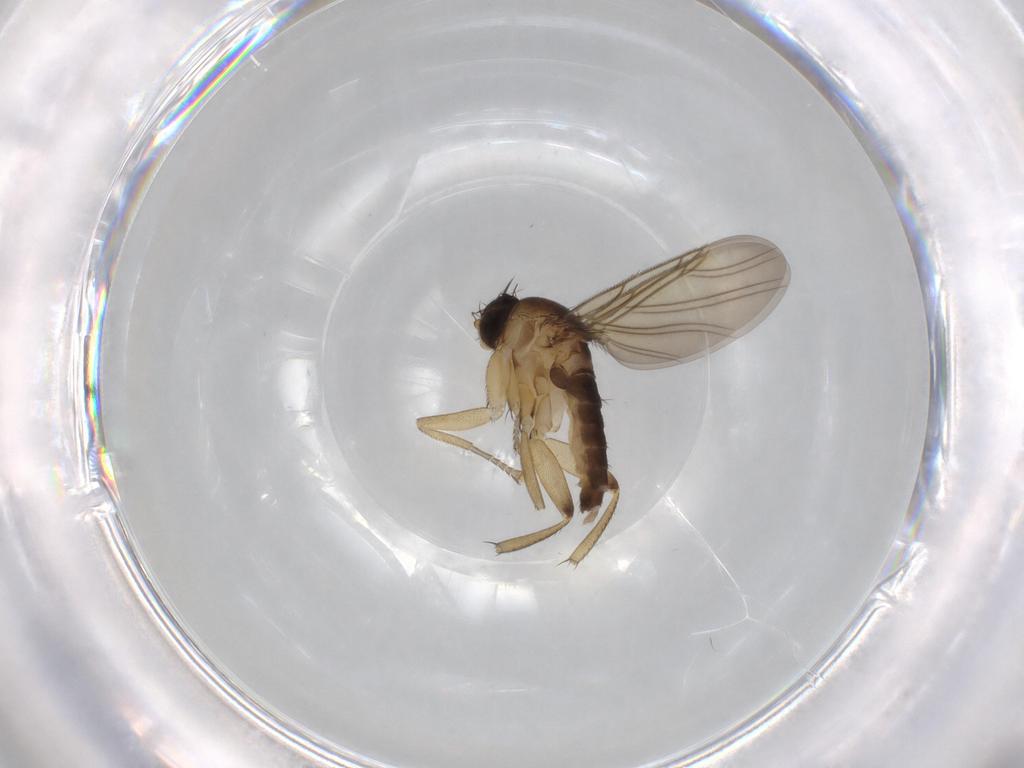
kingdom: Animalia
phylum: Arthropoda
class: Insecta
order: Diptera
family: Phoridae
